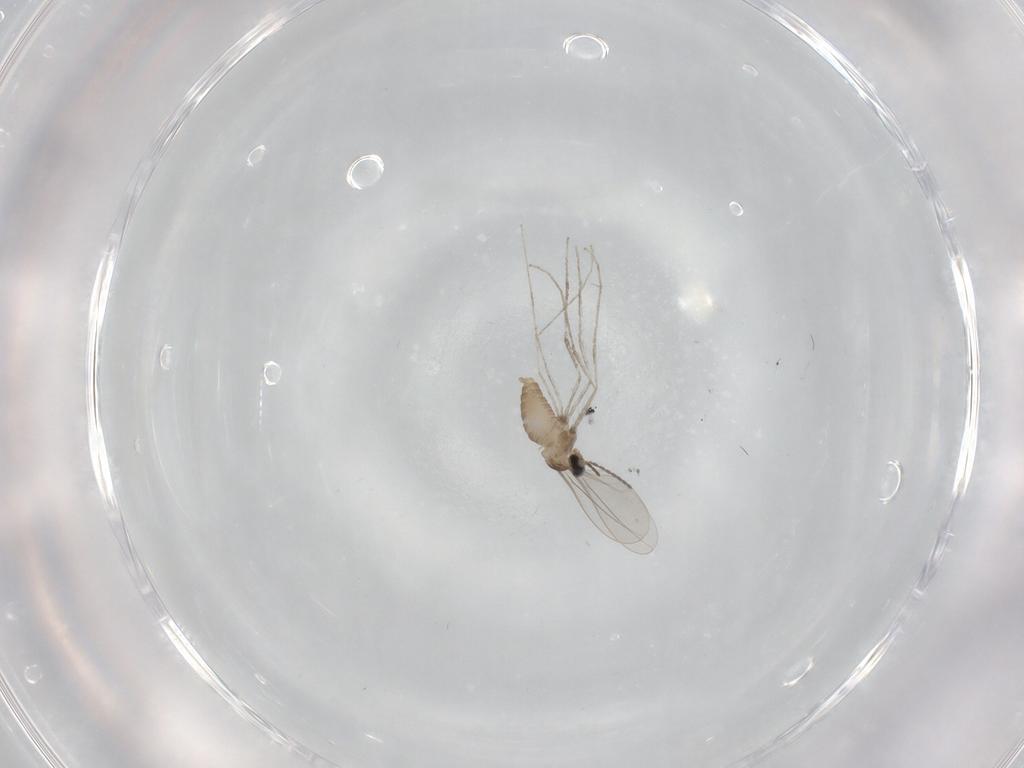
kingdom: Animalia
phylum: Arthropoda
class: Insecta
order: Diptera
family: Cecidomyiidae
